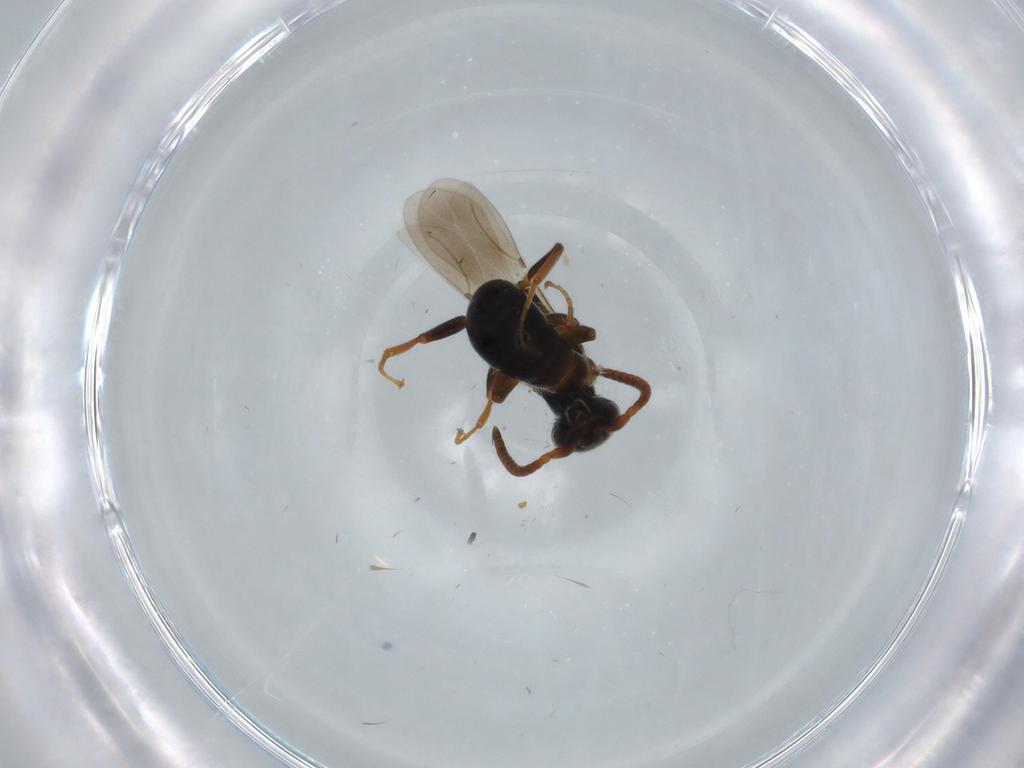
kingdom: Animalia
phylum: Arthropoda
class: Insecta
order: Hymenoptera
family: Bethylidae
